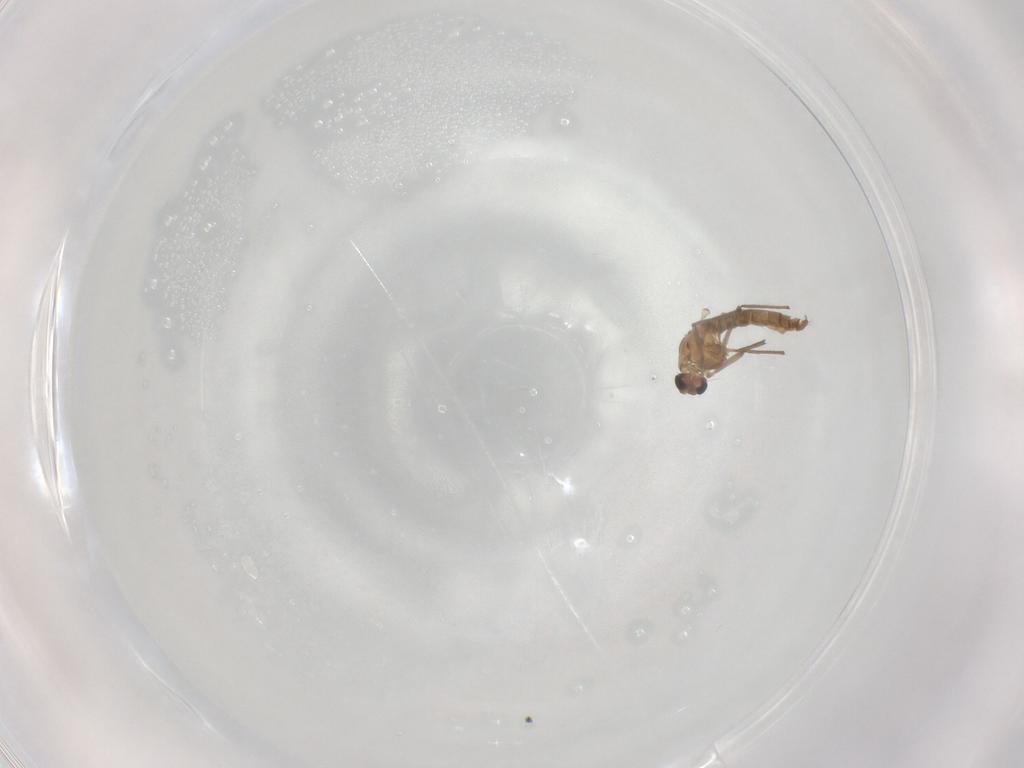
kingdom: Animalia
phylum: Arthropoda
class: Insecta
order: Diptera
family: Chironomidae
